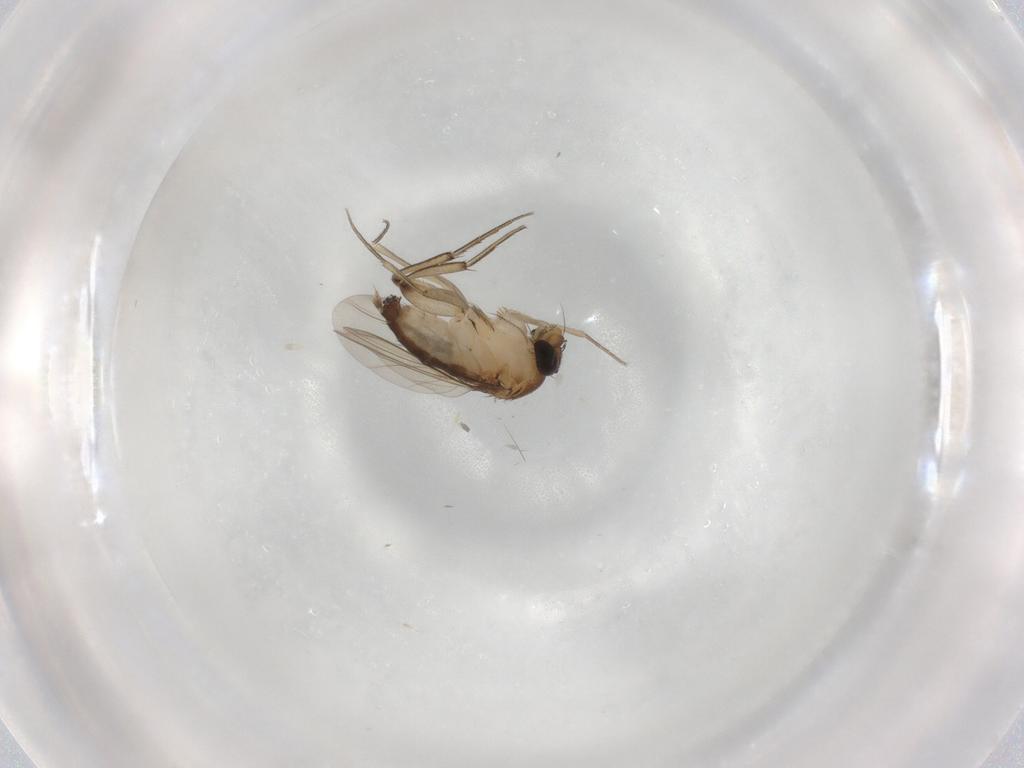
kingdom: Animalia
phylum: Arthropoda
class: Insecta
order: Diptera
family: Phoridae
